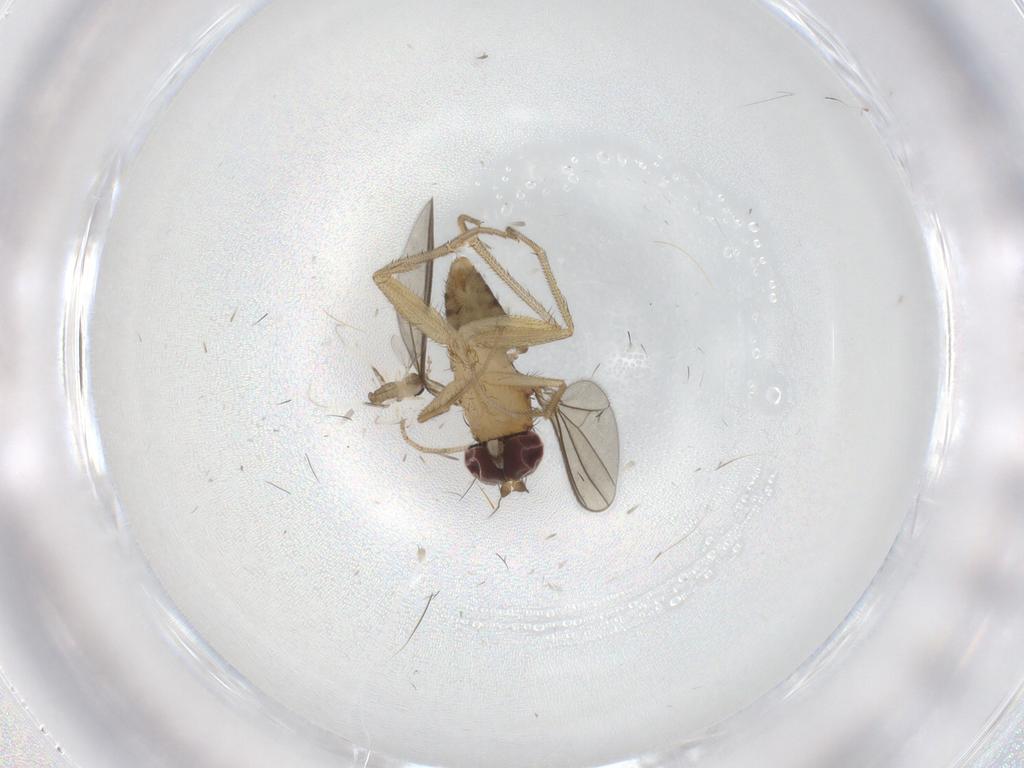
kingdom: Animalia
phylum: Arthropoda
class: Insecta
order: Diptera
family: Dolichopodidae
